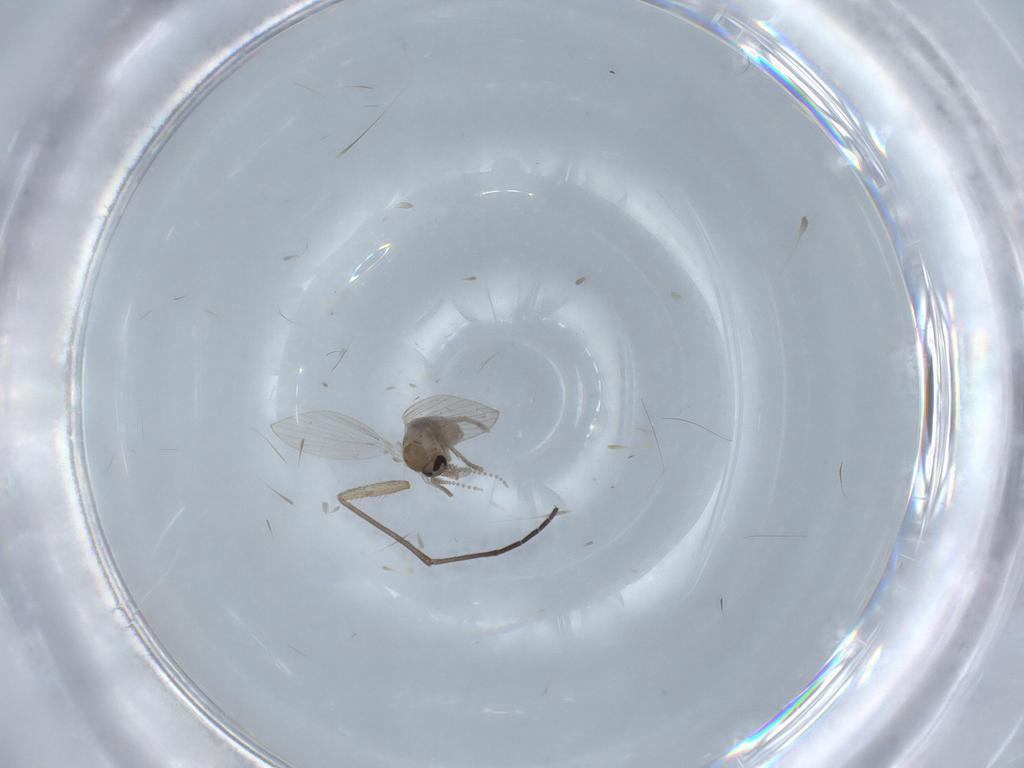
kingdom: Animalia
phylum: Arthropoda
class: Insecta
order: Diptera
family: Psychodidae
